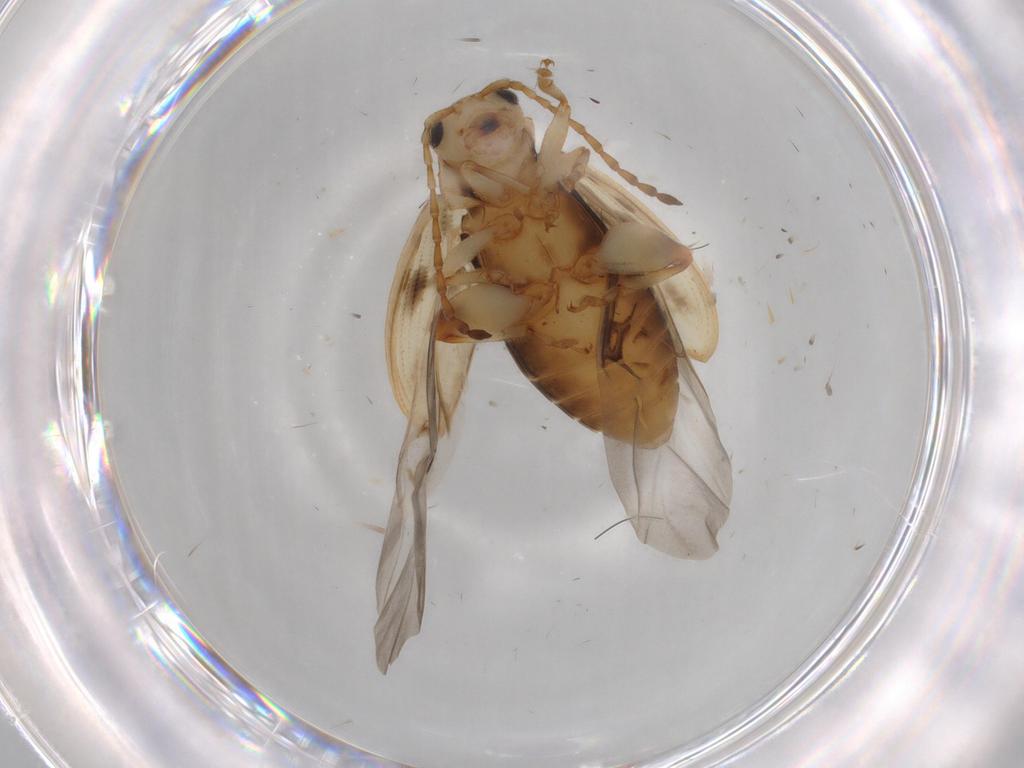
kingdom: Animalia
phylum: Arthropoda
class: Insecta
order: Coleoptera
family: Chrysomelidae
